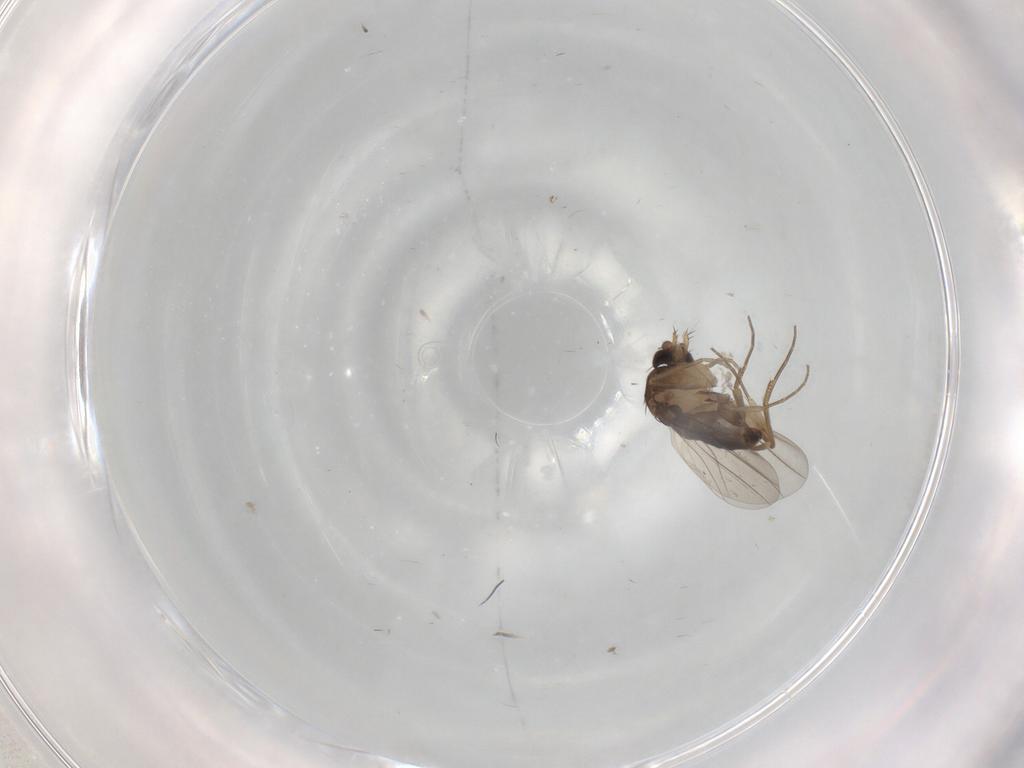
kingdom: Animalia
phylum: Arthropoda
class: Insecta
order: Diptera
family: Phoridae
